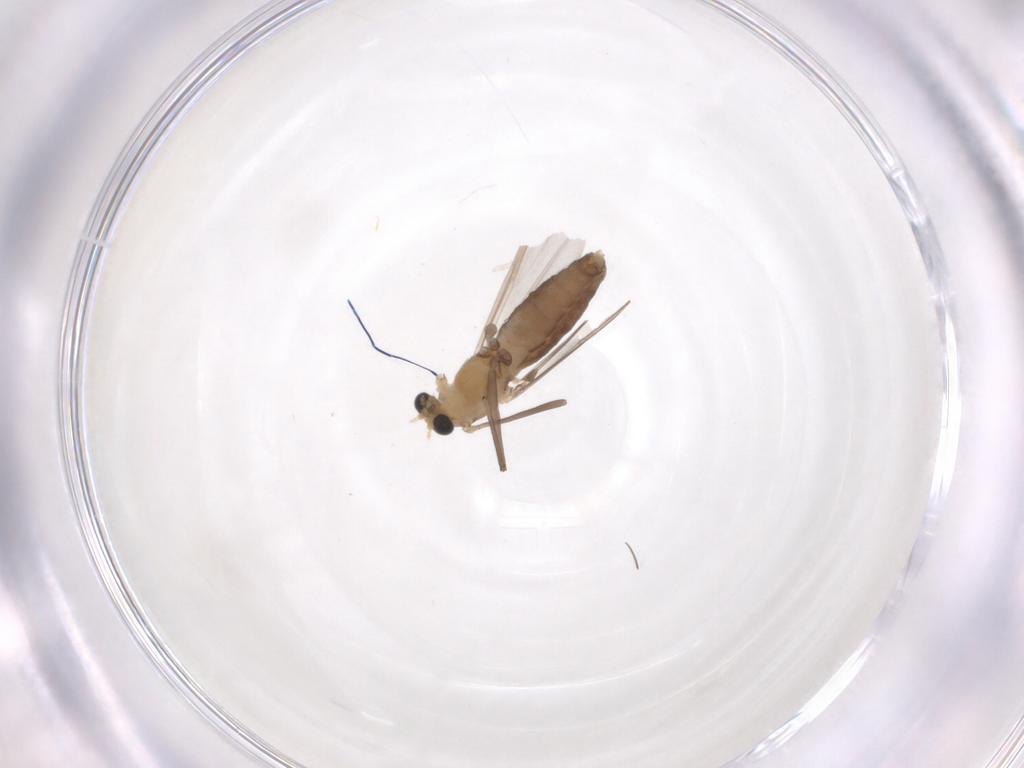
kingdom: Animalia
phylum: Arthropoda
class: Insecta
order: Diptera
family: Chironomidae
